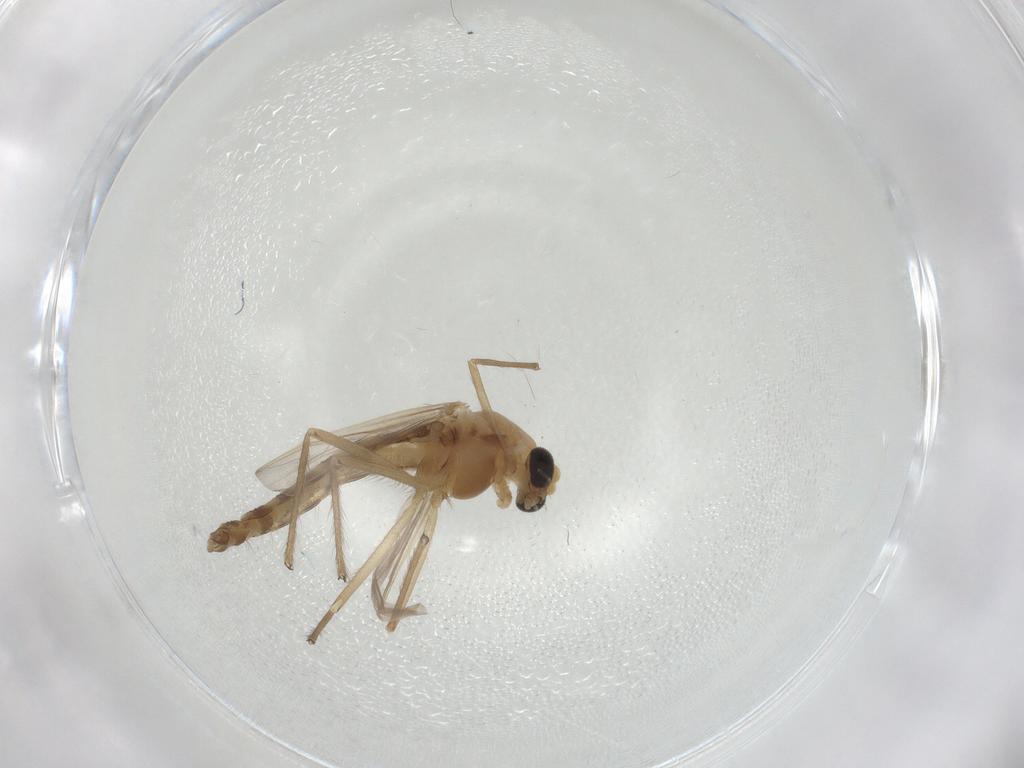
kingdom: Animalia
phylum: Arthropoda
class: Insecta
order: Diptera
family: Chironomidae
